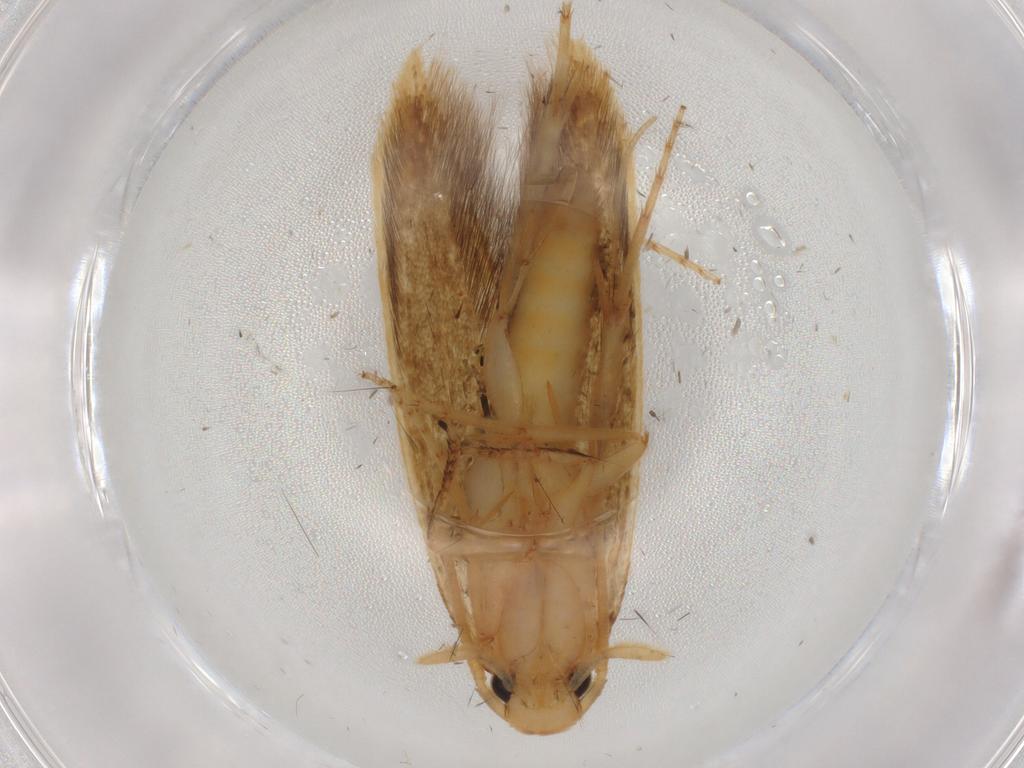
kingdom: Animalia
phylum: Arthropoda
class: Insecta
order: Lepidoptera
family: Tineidae
